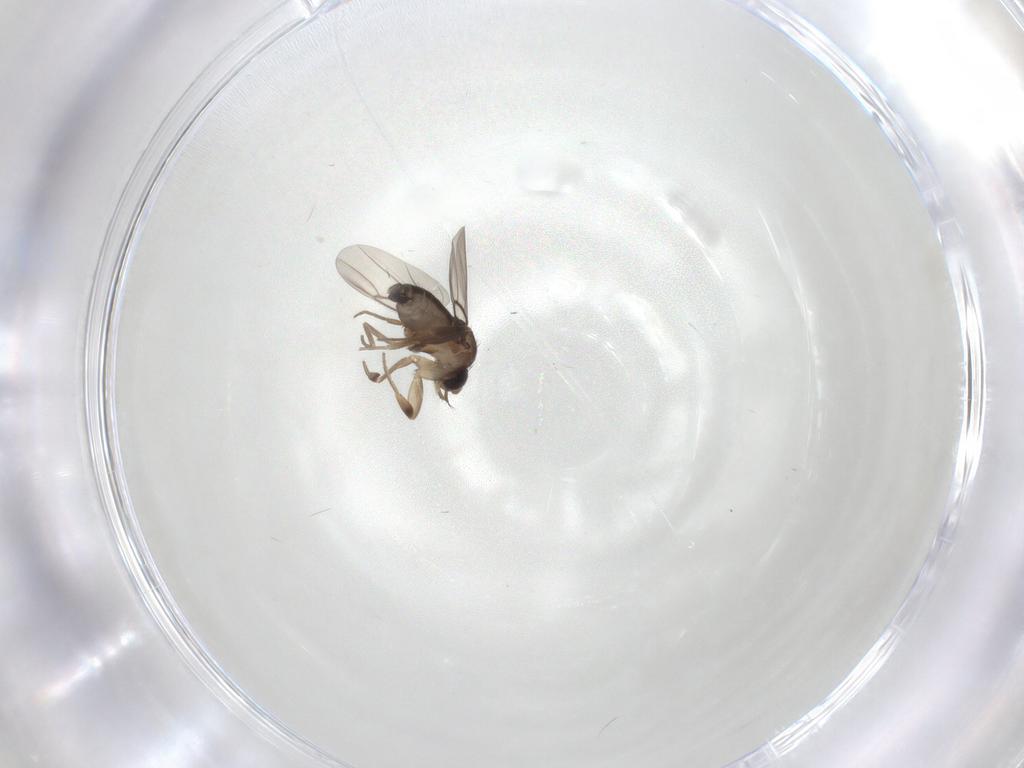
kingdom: Animalia
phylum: Arthropoda
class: Insecta
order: Diptera
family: Phoridae
